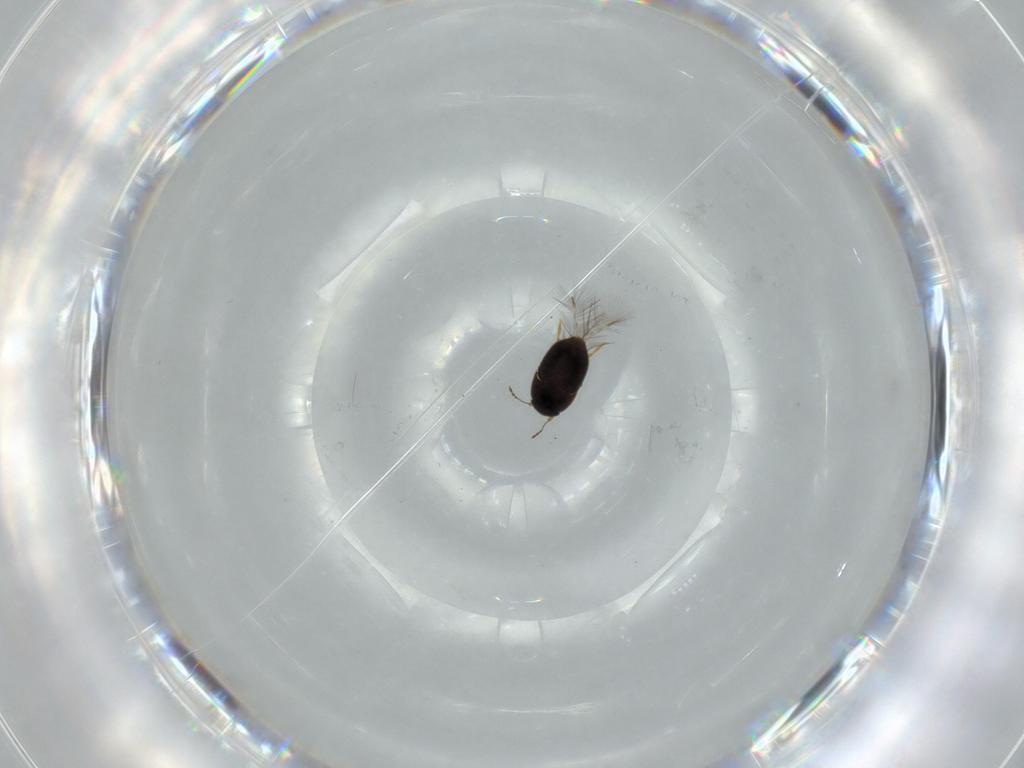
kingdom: Animalia
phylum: Arthropoda
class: Insecta
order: Coleoptera
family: Ptiliidae
